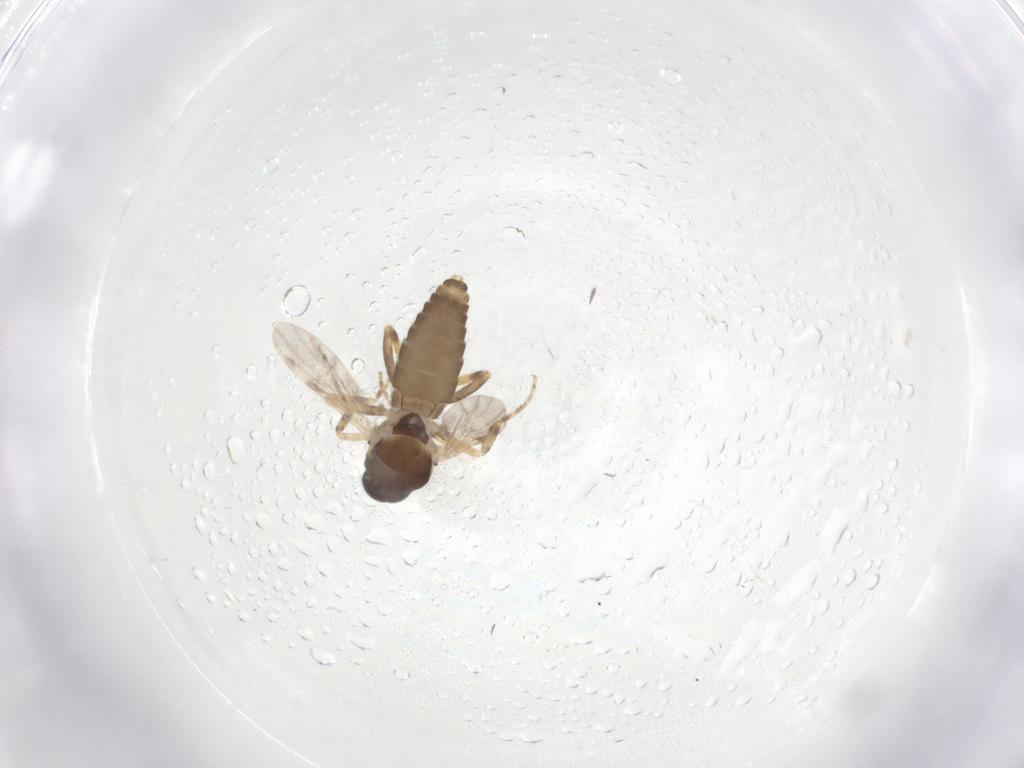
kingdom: Animalia
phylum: Arthropoda
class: Insecta
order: Diptera
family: Ceratopogonidae
